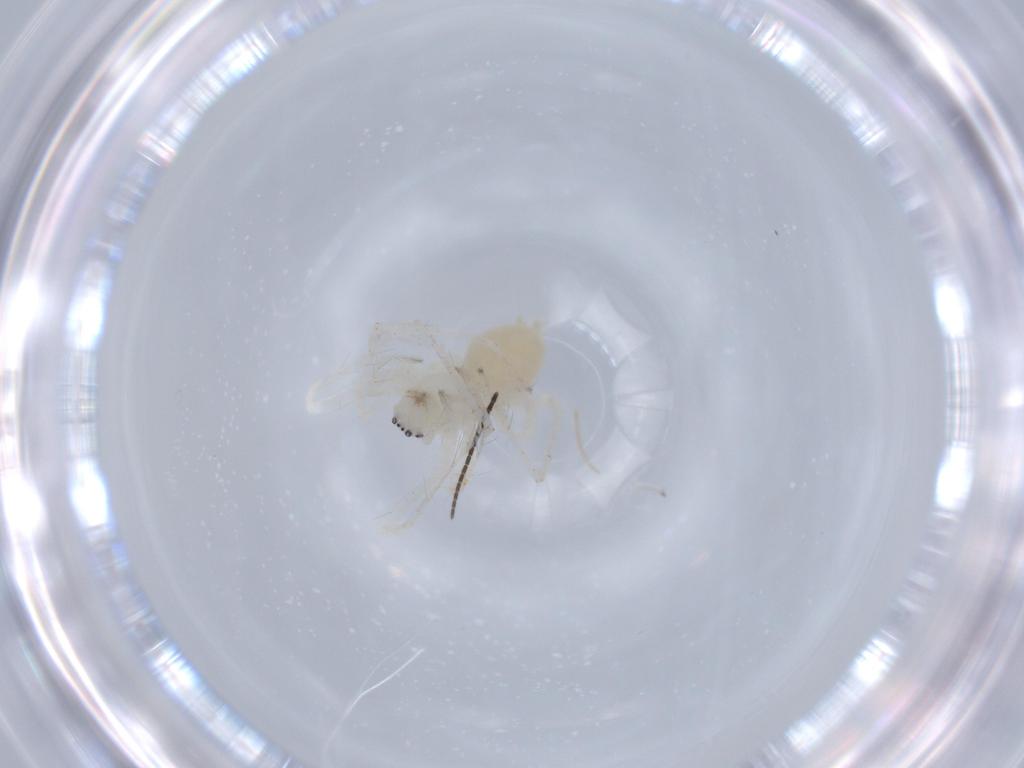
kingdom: Animalia
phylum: Arthropoda
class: Arachnida
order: Araneae
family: Anyphaenidae
